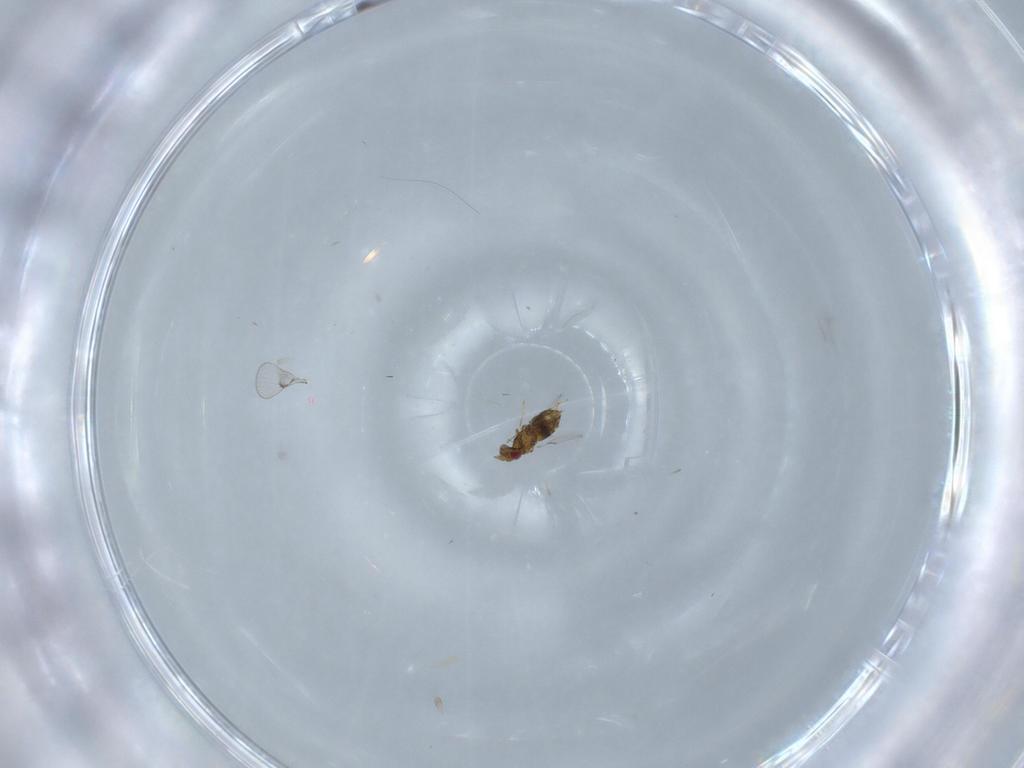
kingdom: Animalia
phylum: Arthropoda
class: Insecta
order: Hymenoptera
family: Trichogrammatidae
